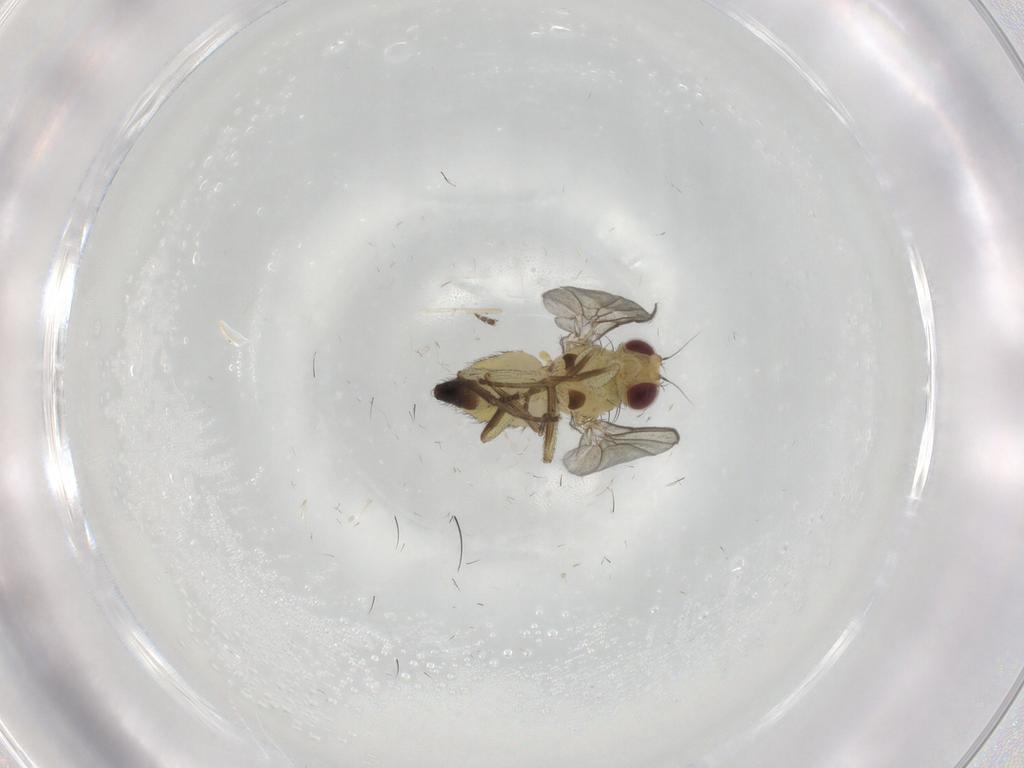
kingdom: Animalia
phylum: Arthropoda
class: Insecta
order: Diptera
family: Agromyzidae
